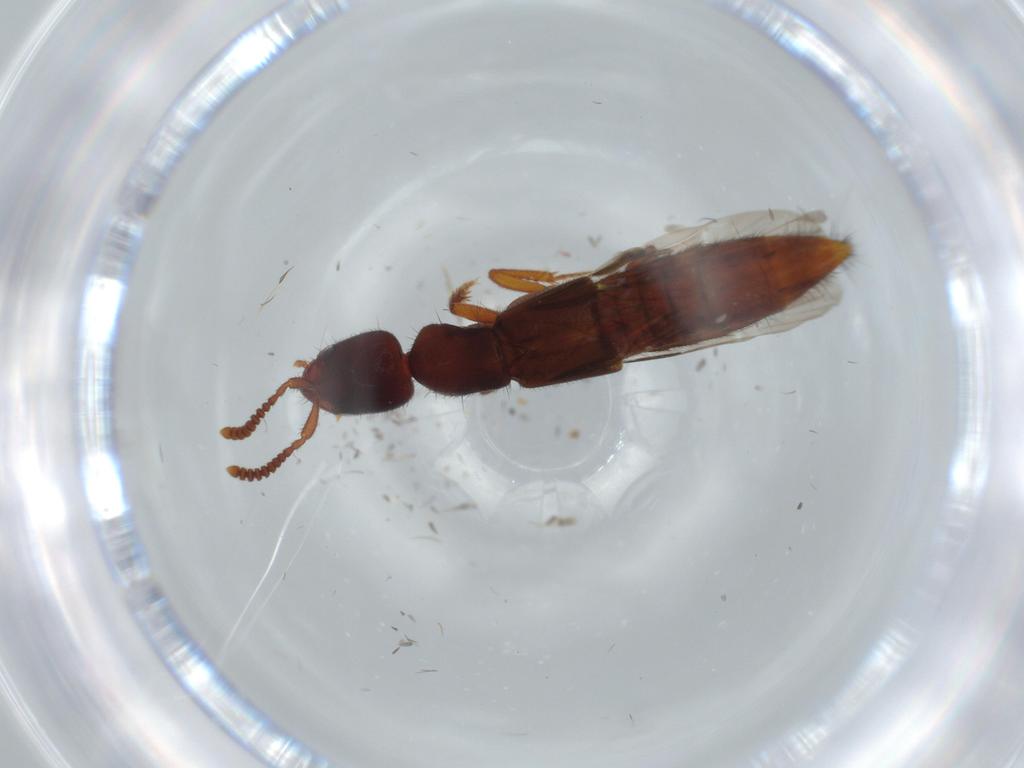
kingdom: Animalia
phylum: Arthropoda
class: Insecta
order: Coleoptera
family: Staphylinidae
